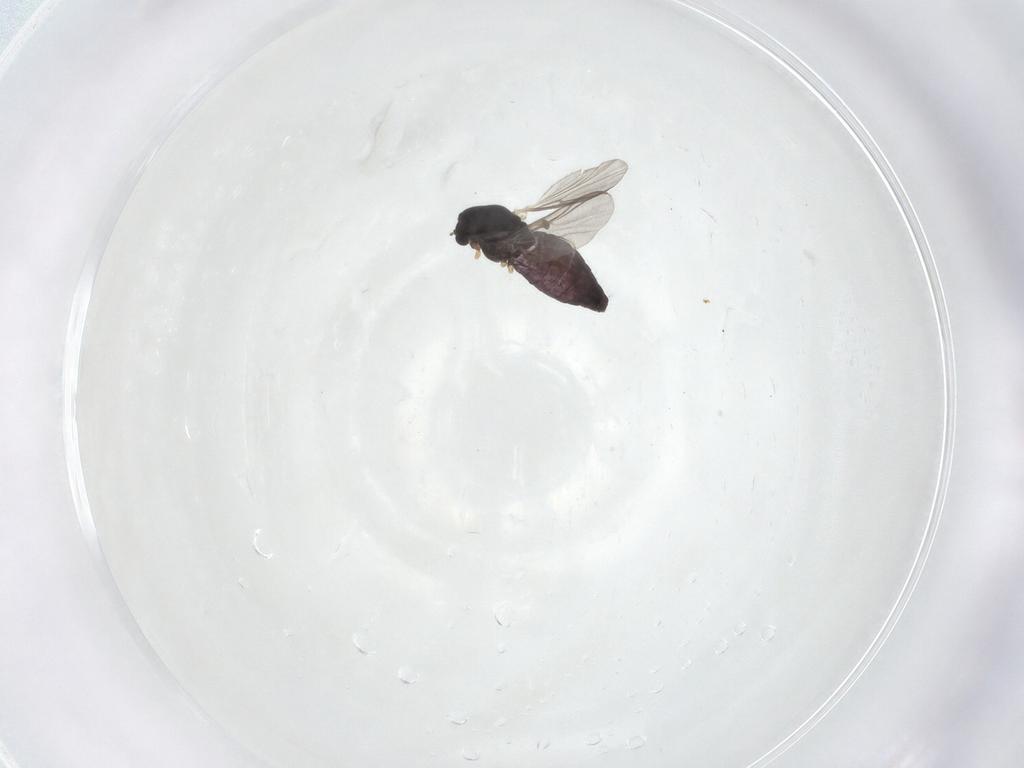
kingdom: Animalia
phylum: Arthropoda
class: Insecta
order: Diptera
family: Chironomidae
